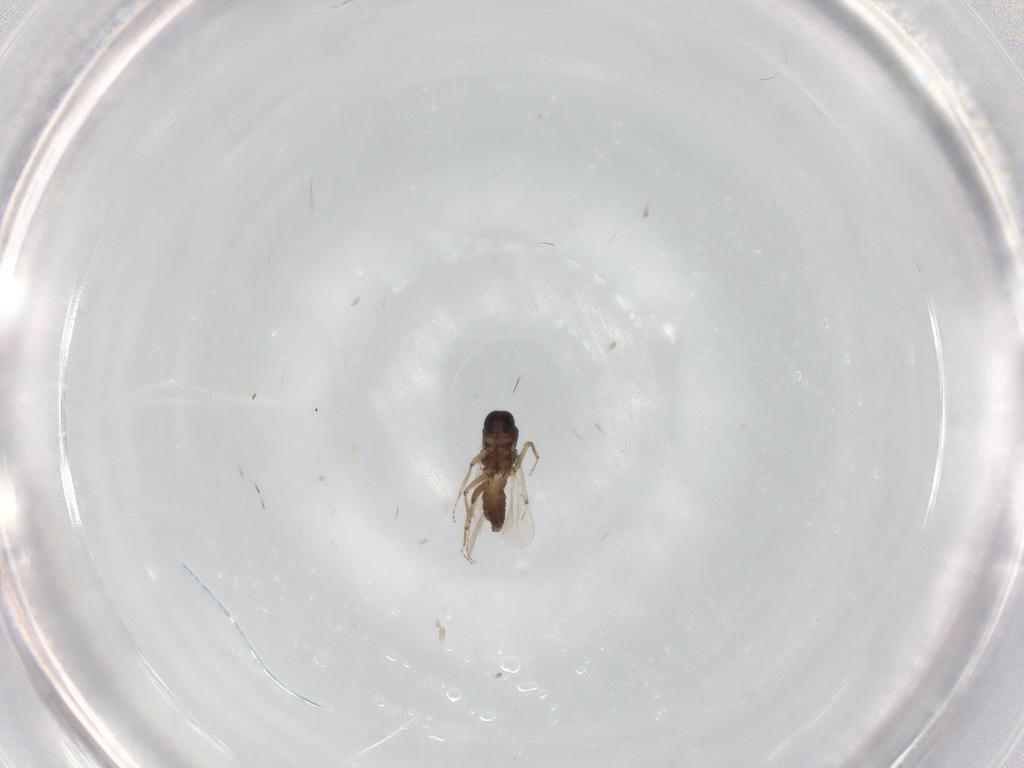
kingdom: Animalia
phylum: Arthropoda
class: Insecta
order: Diptera
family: Ceratopogonidae
